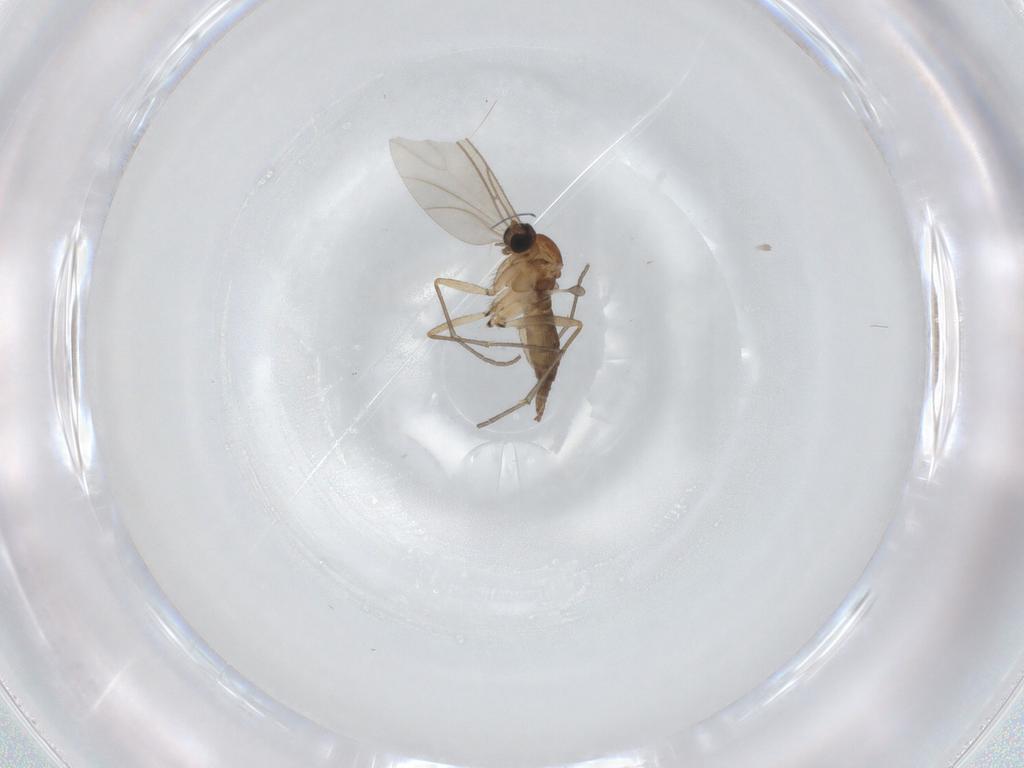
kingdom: Animalia
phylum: Arthropoda
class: Insecta
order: Diptera
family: Sciaridae
